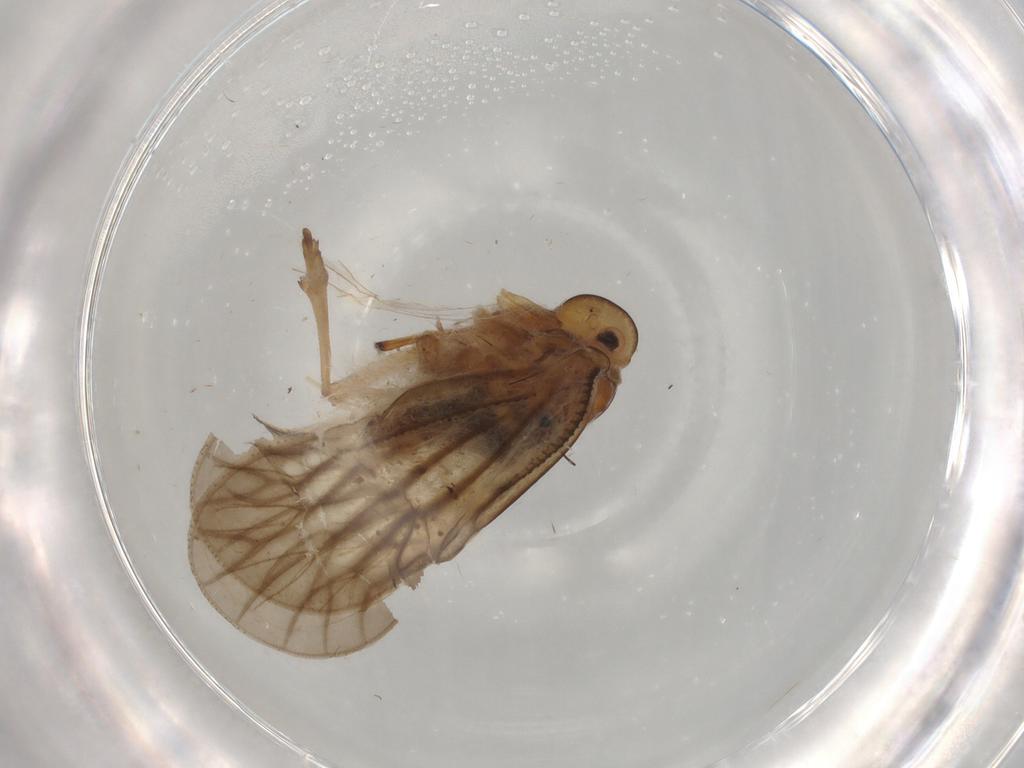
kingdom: Animalia
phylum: Arthropoda
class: Insecta
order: Hemiptera
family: Meenoplidae
